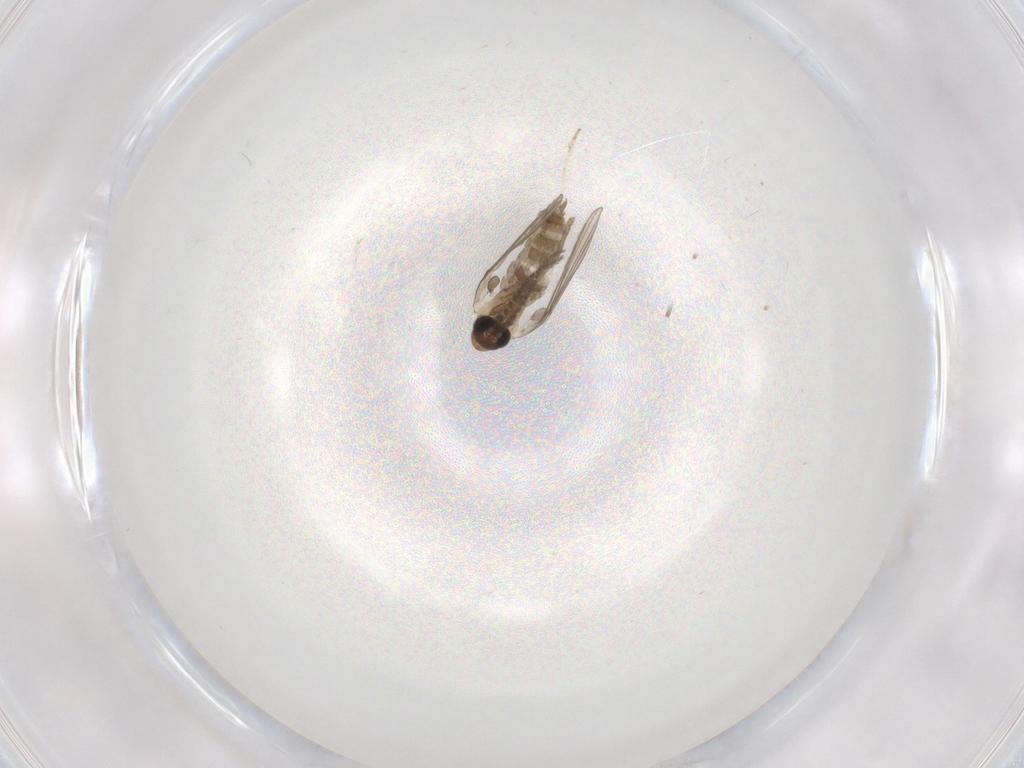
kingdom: Animalia
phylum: Arthropoda
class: Insecta
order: Diptera
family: Psychodidae
